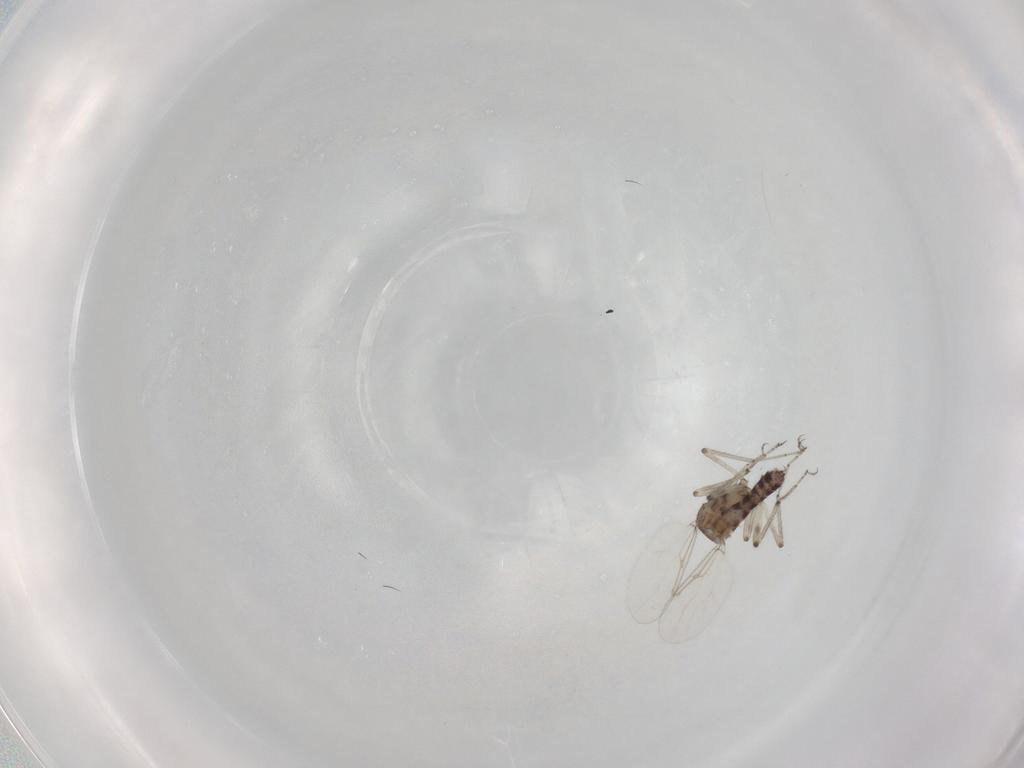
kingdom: Animalia
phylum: Arthropoda
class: Insecta
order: Diptera
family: Ceratopogonidae
